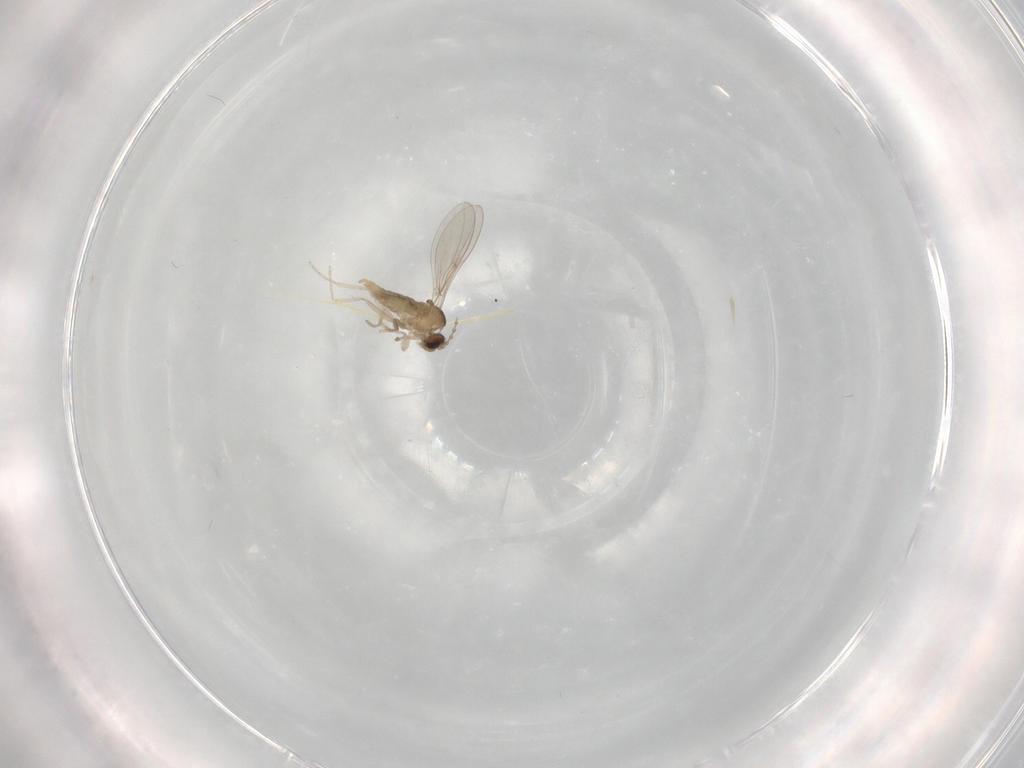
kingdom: Animalia
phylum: Arthropoda
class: Insecta
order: Diptera
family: Cecidomyiidae
